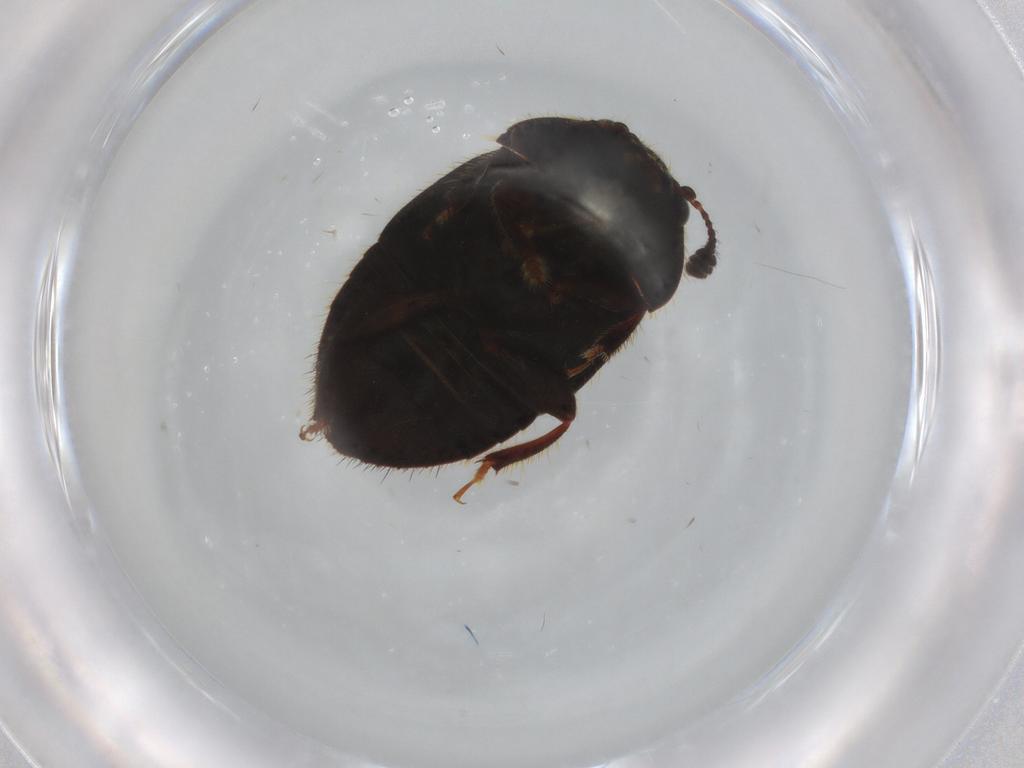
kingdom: Animalia
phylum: Arthropoda
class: Insecta
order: Coleoptera
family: Nitidulidae
